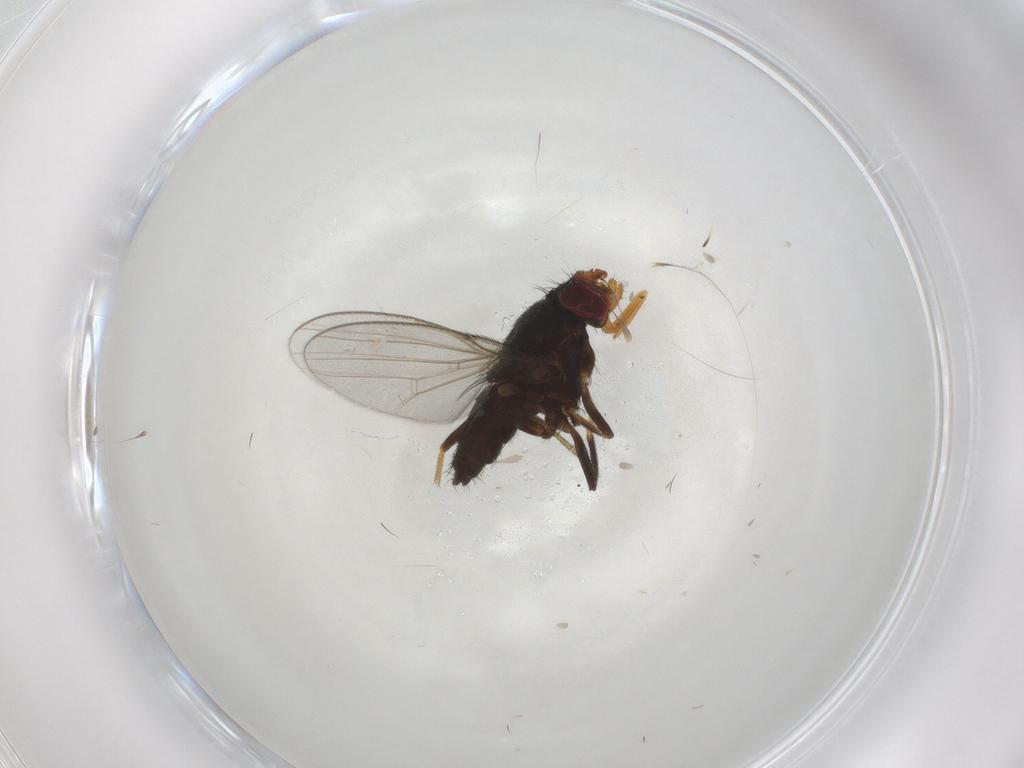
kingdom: Animalia
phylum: Arthropoda
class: Insecta
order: Diptera
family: Milichiidae
